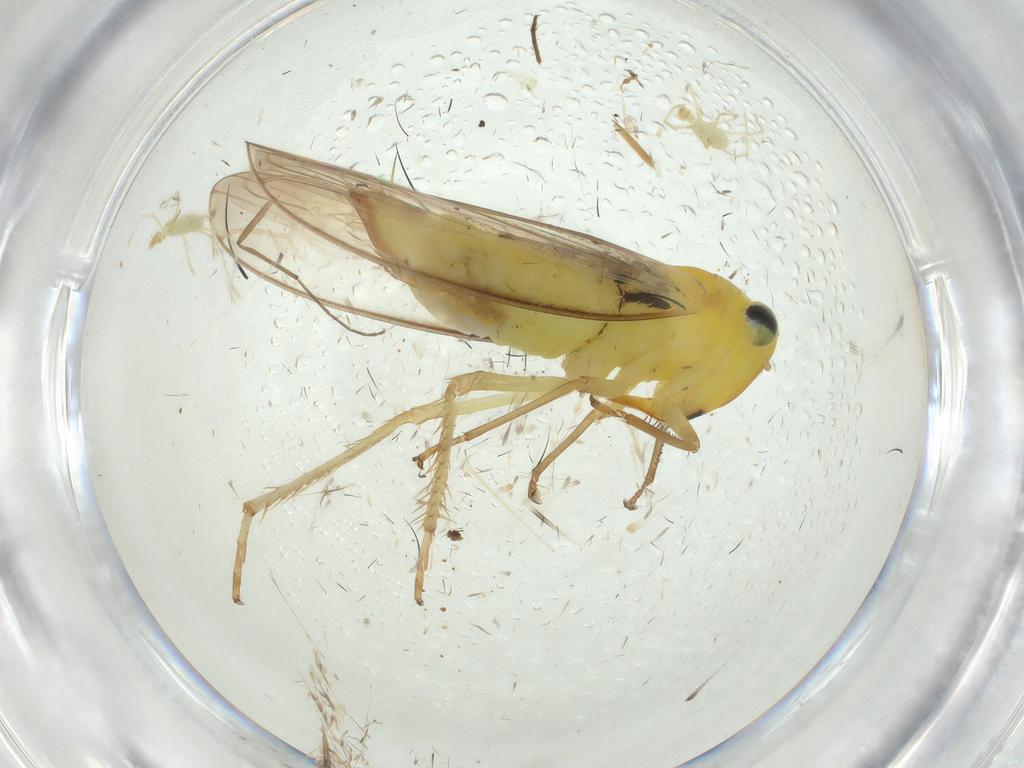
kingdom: Animalia
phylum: Arthropoda
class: Insecta
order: Hemiptera
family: Cicadellidae
